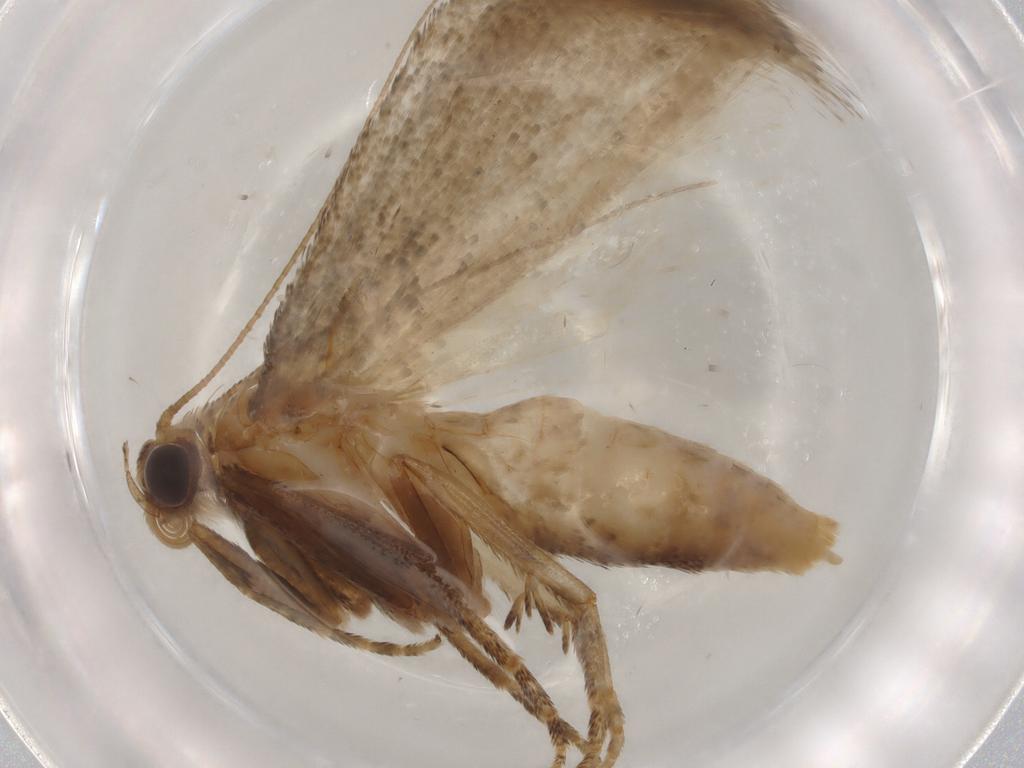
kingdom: Animalia
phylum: Arthropoda
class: Insecta
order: Lepidoptera
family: Gelechiidae
